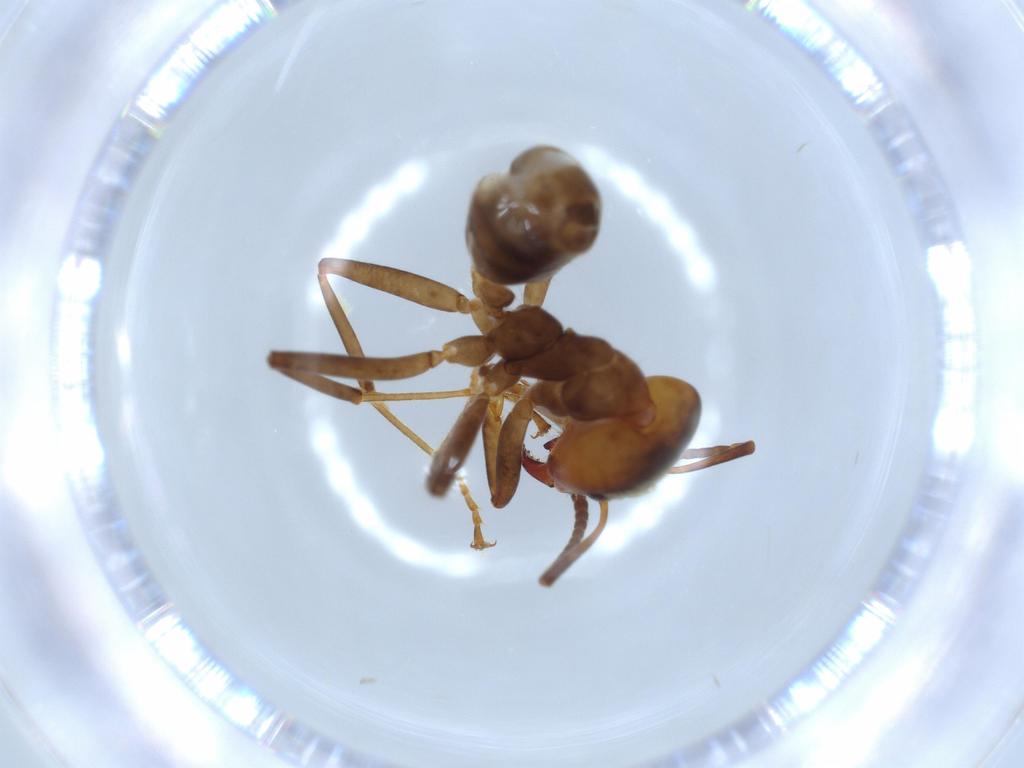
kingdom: Animalia
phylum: Arthropoda
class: Insecta
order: Hymenoptera
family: Formicidae
